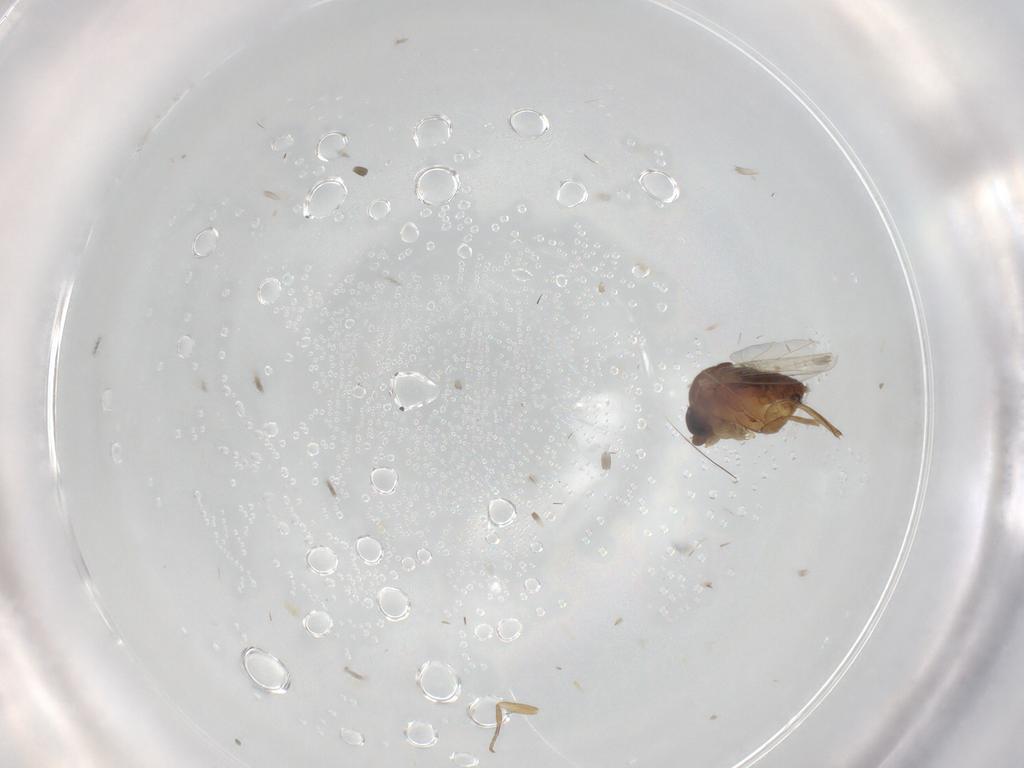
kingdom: Animalia
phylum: Arthropoda
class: Insecta
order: Diptera
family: Phoridae
